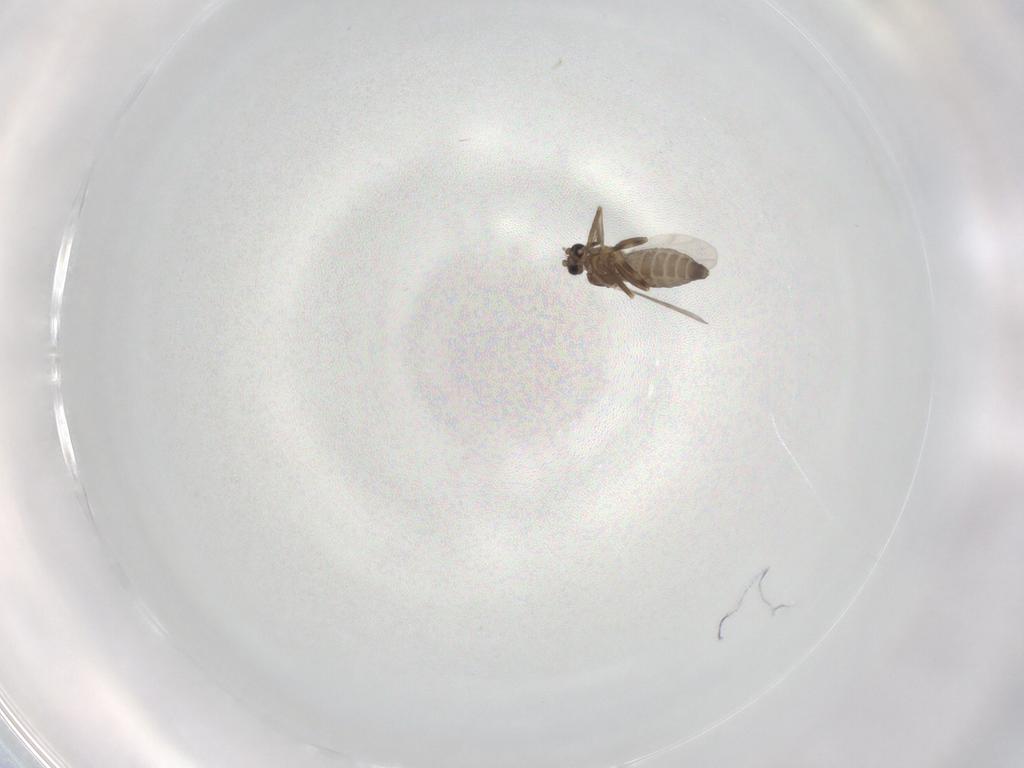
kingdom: Animalia
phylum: Arthropoda
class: Insecta
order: Diptera
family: Ceratopogonidae
